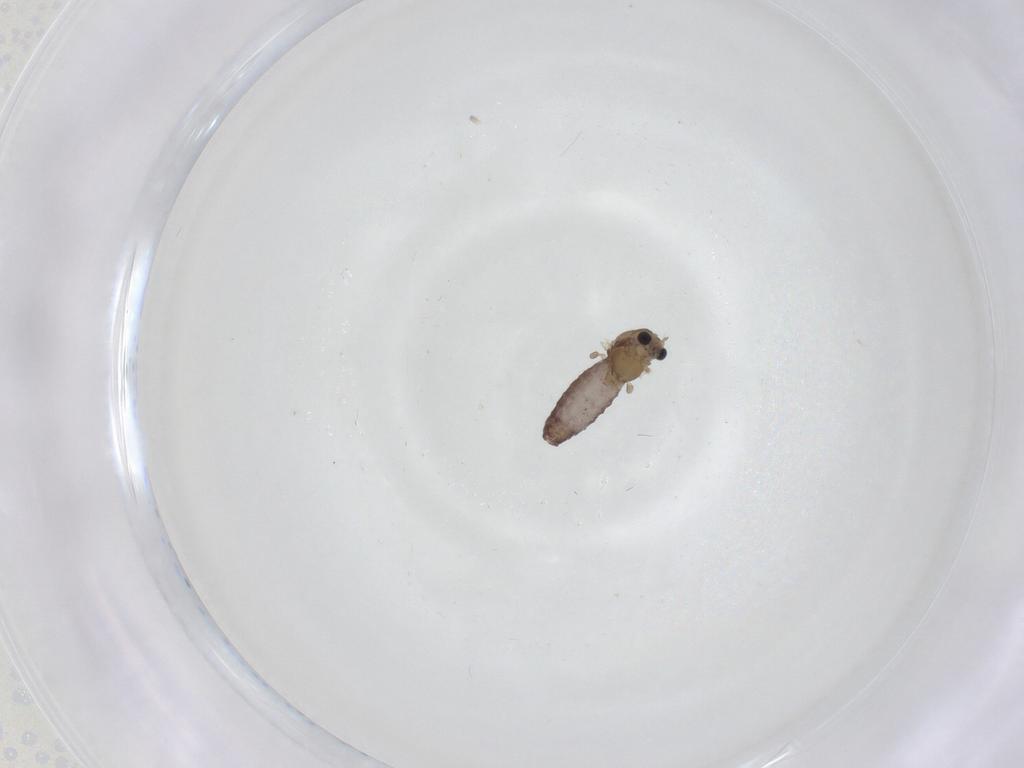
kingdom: Animalia
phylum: Arthropoda
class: Insecta
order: Diptera
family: Chironomidae
